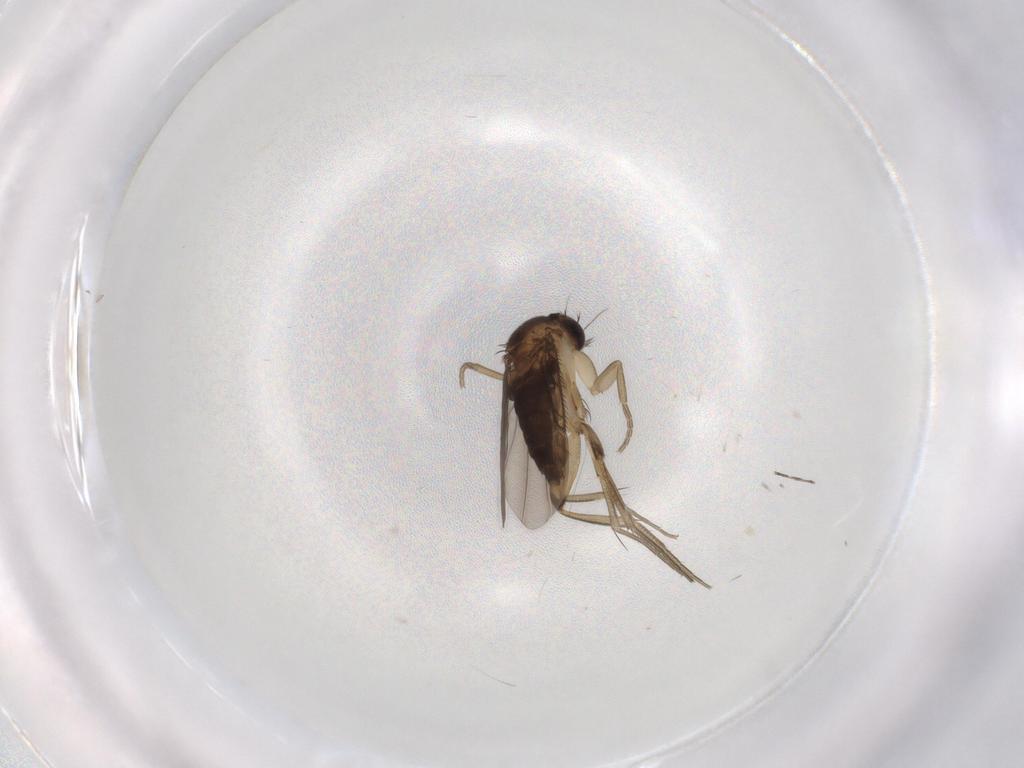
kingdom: Animalia
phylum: Arthropoda
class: Insecta
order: Diptera
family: Phoridae
